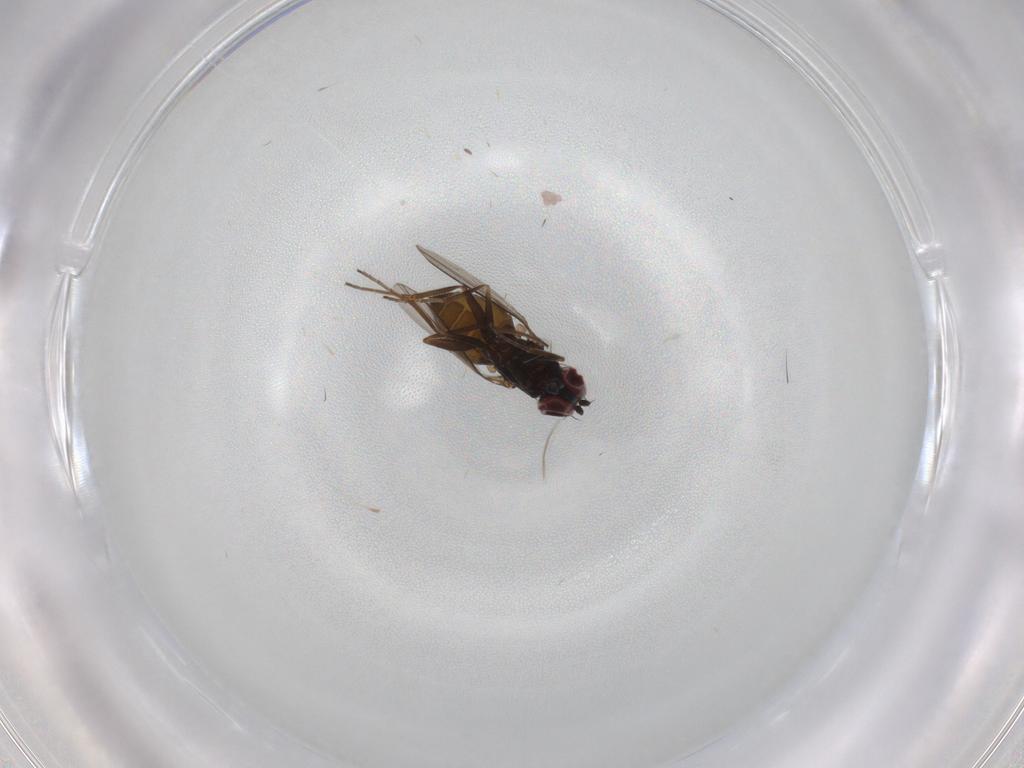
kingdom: Animalia
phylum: Arthropoda
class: Insecta
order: Diptera
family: Dolichopodidae
